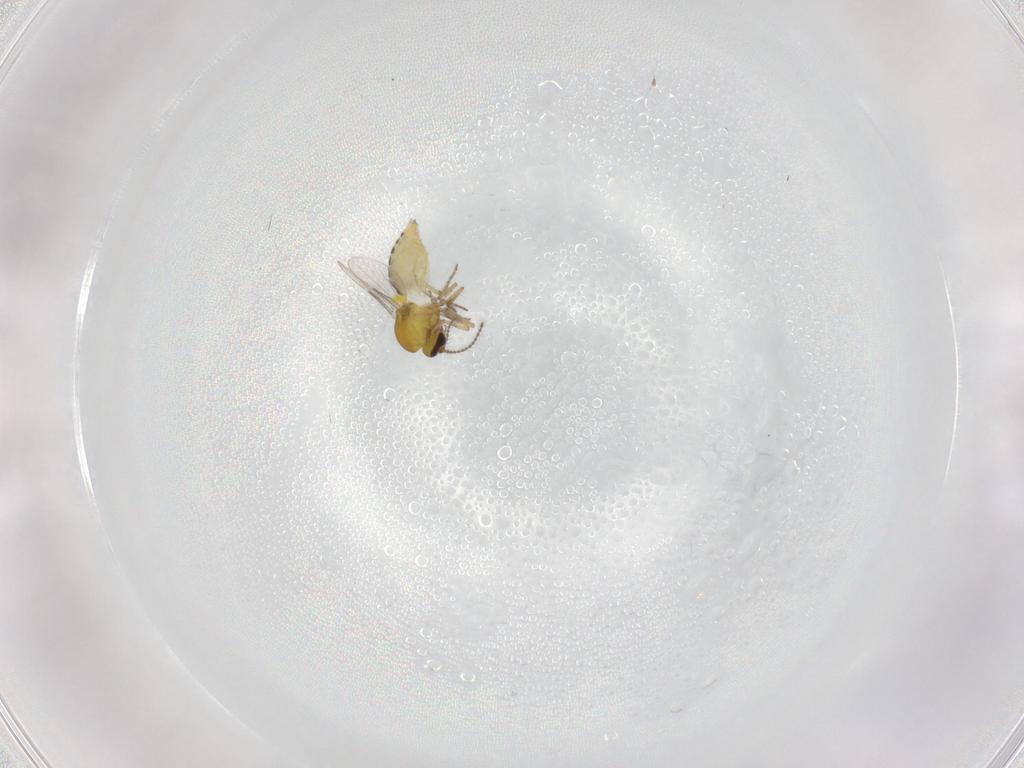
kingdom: Animalia
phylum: Arthropoda
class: Insecta
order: Diptera
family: Ceratopogonidae
